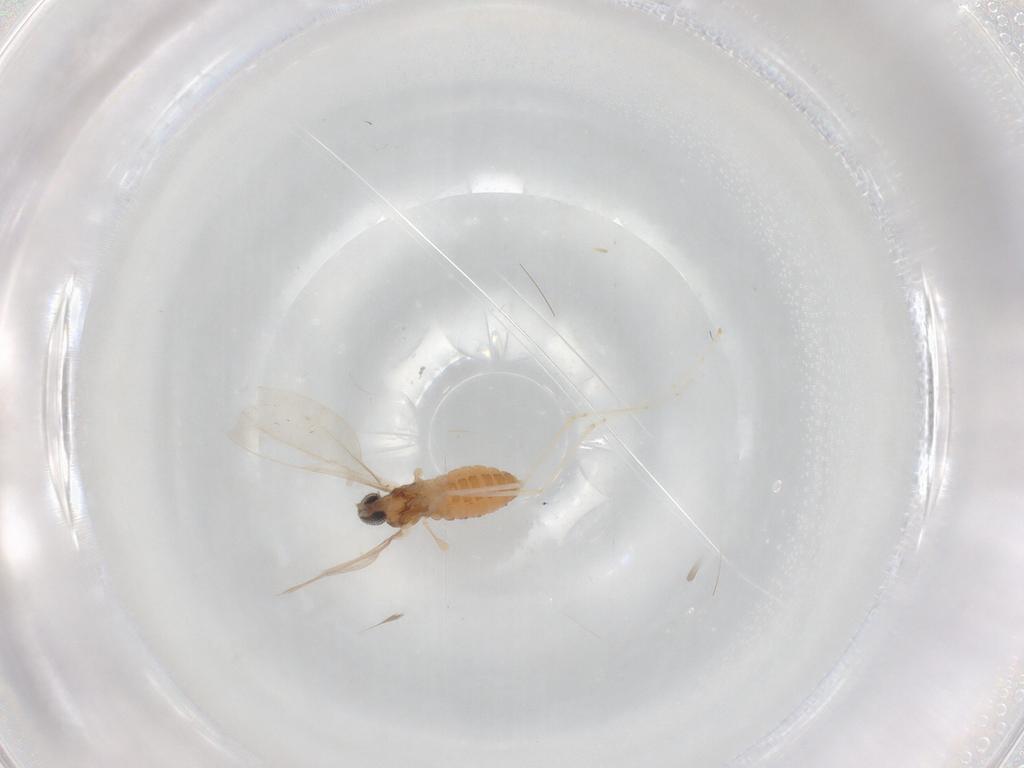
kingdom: Animalia
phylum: Arthropoda
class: Insecta
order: Diptera
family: Cecidomyiidae
